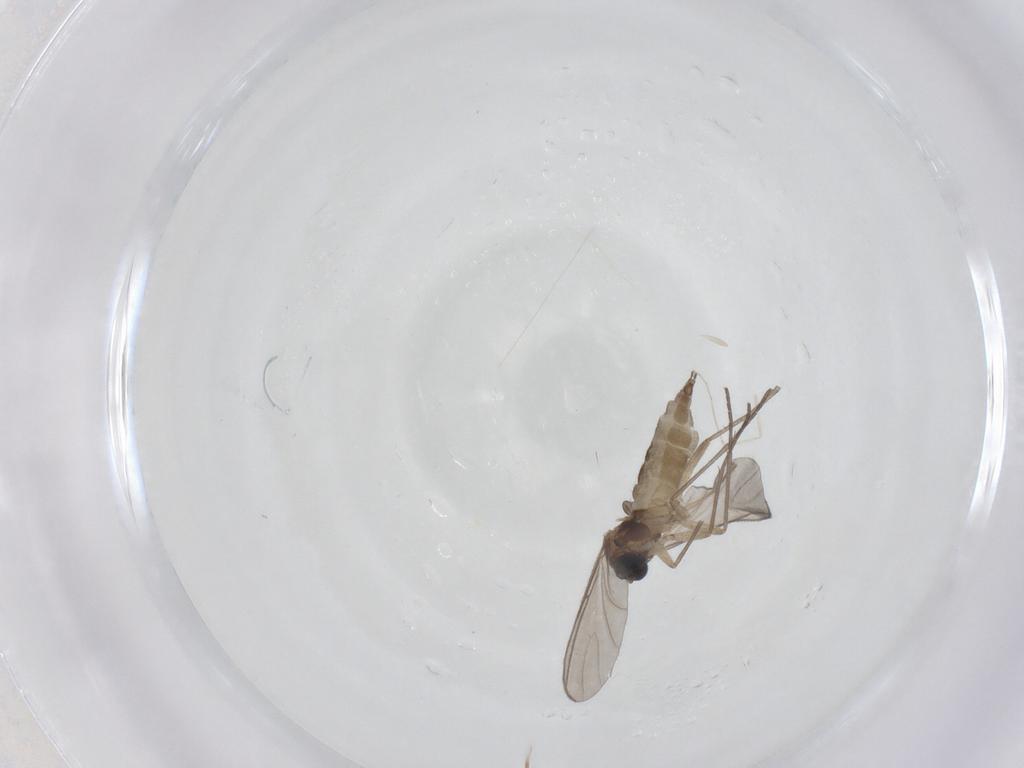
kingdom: Animalia
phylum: Arthropoda
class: Insecta
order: Diptera
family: Sciaridae
